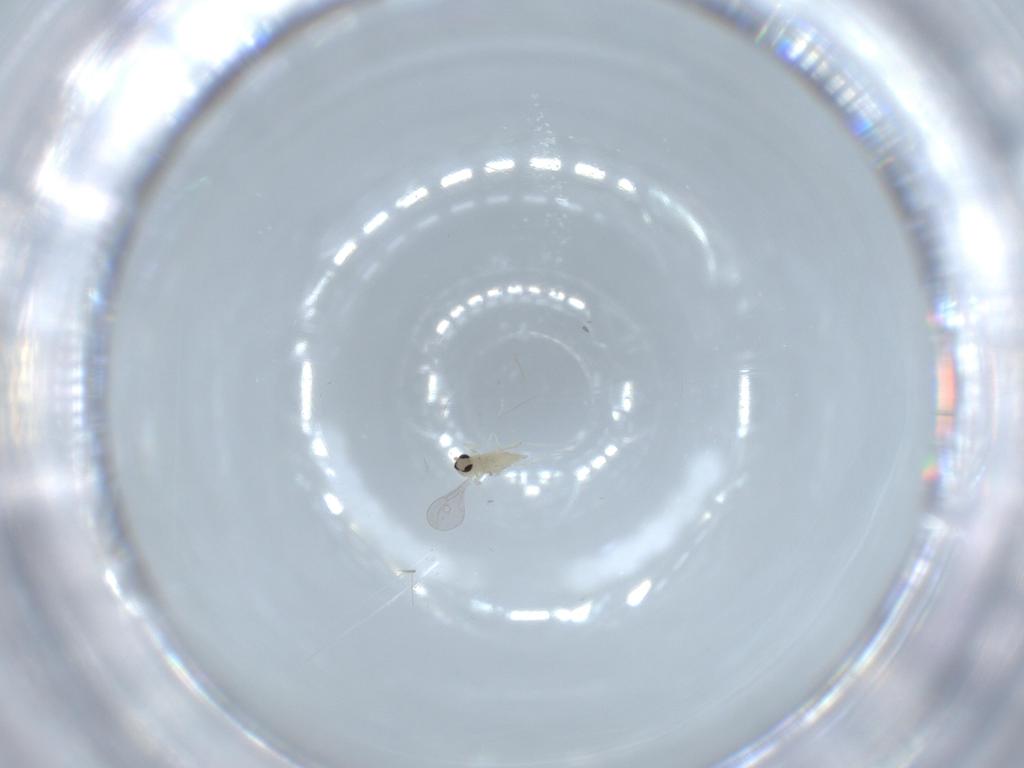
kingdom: Animalia
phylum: Arthropoda
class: Insecta
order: Diptera
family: Cecidomyiidae
